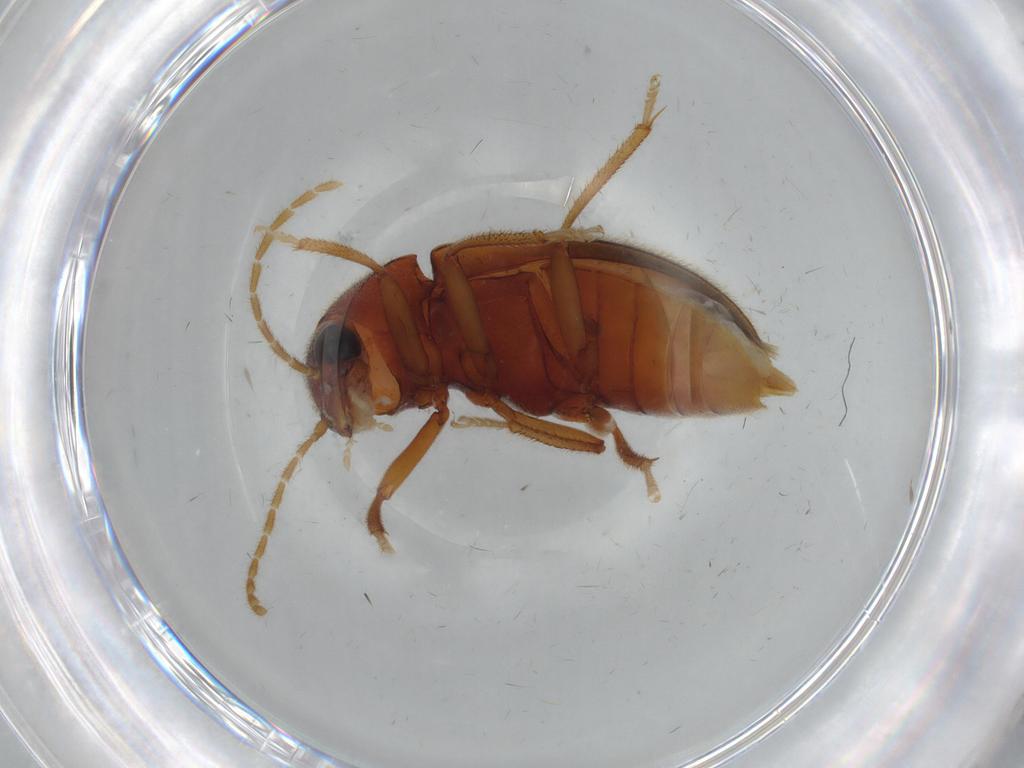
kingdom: Animalia
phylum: Arthropoda
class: Insecta
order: Coleoptera
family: Ptilodactylidae
